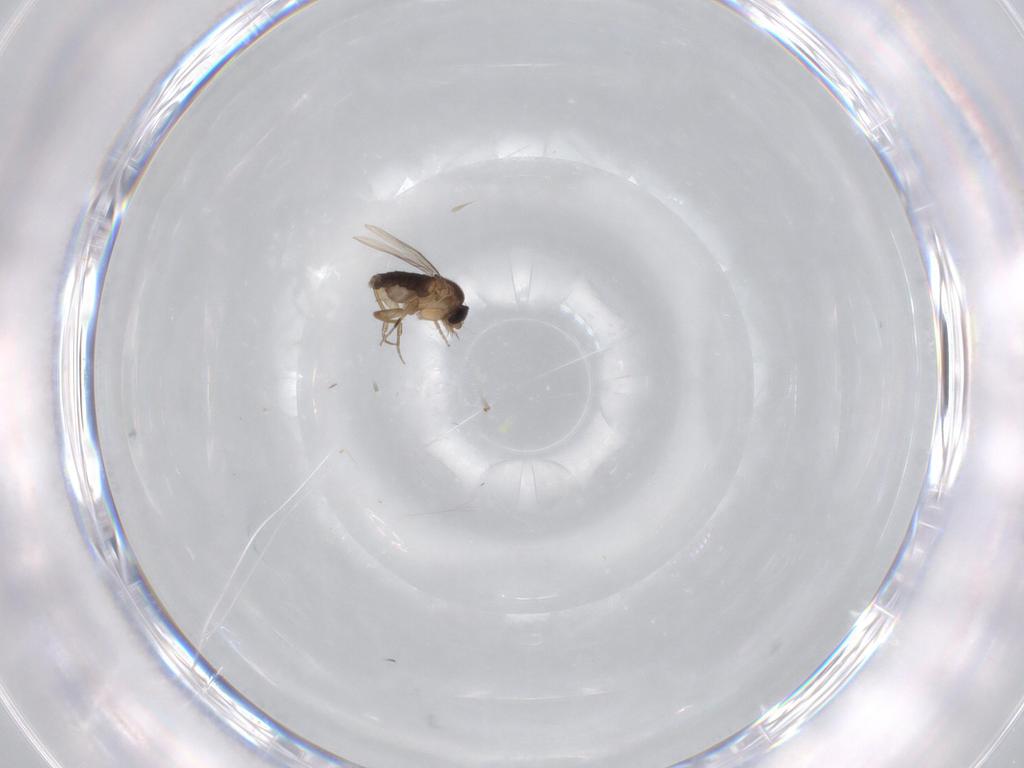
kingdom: Animalia
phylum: Arthropoda
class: Insecta
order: Diptera
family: Phoridae
